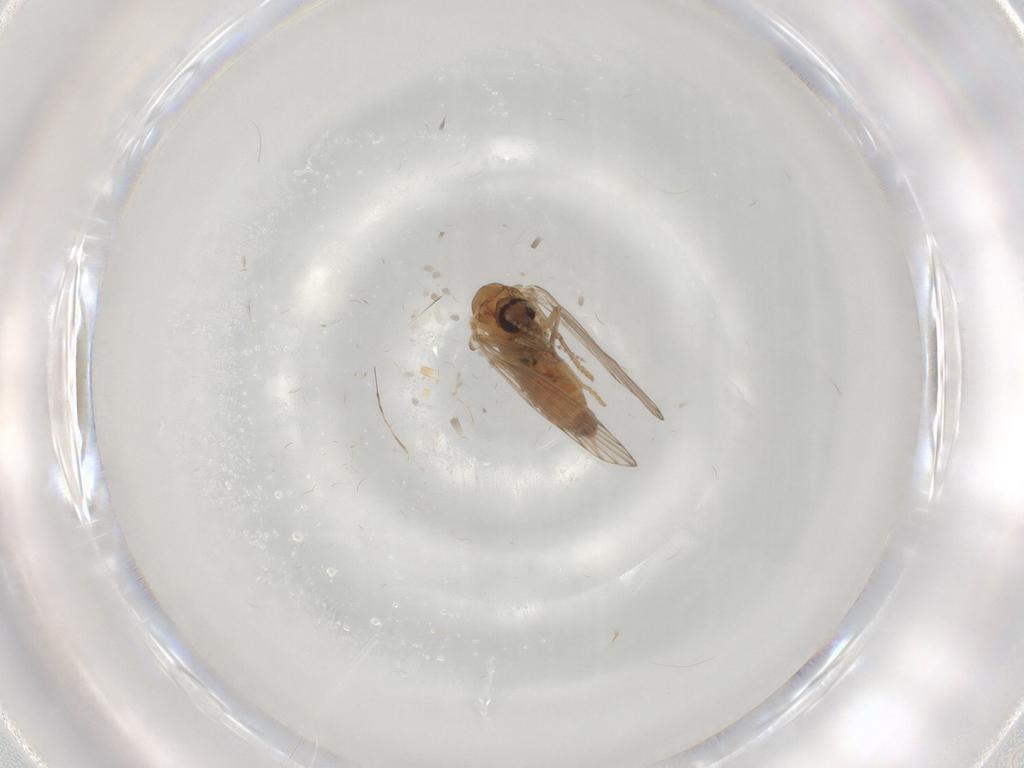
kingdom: Animalia
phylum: Arthropoda
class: Insecta
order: Diptera
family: Psychodidae
